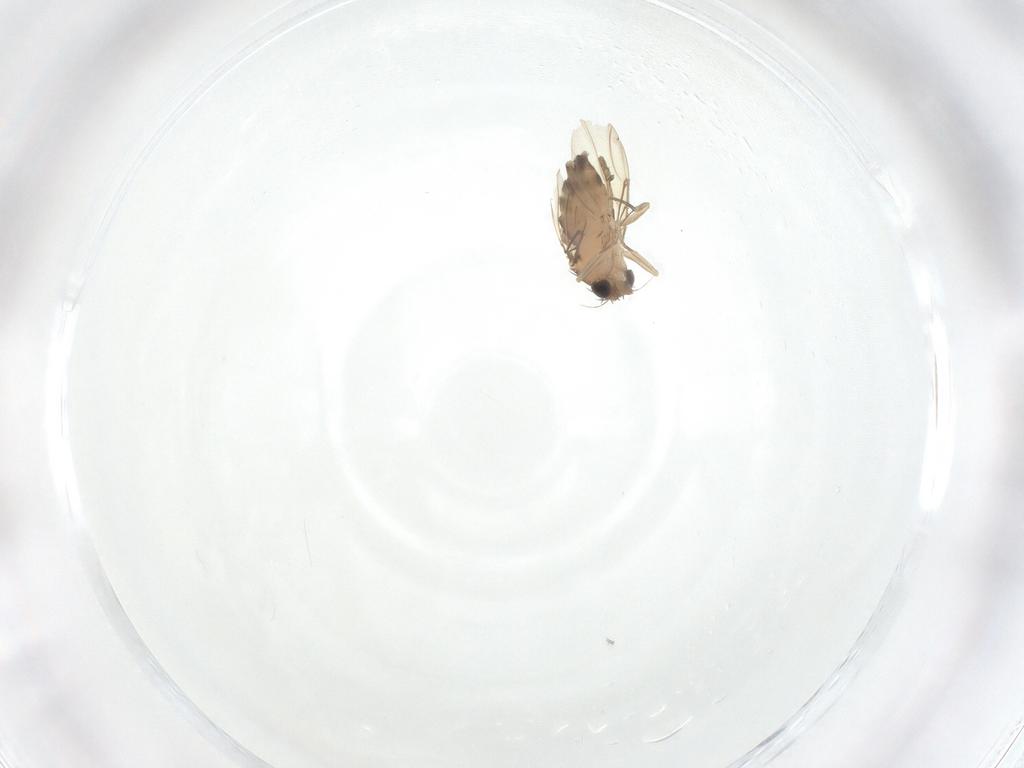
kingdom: Animalia
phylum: Arthropoda
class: Insecta
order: Diptera
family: Phoridae
